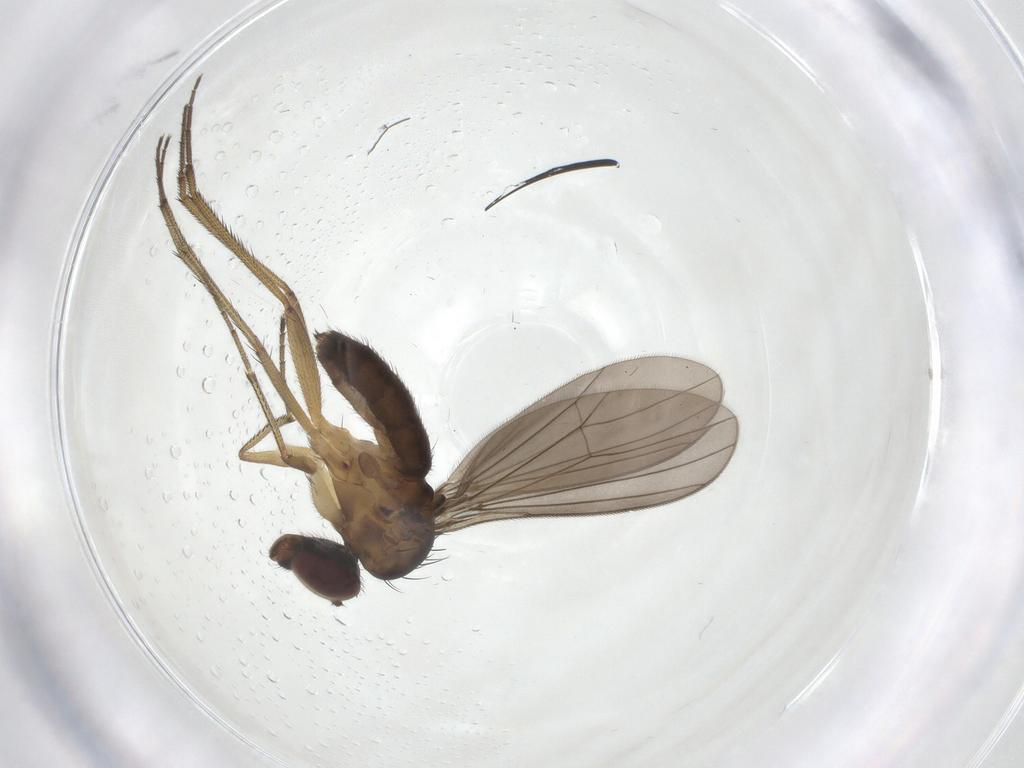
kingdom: Animalia
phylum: Arthropoda
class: Insecta
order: Diptera
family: Dolichopodidae
